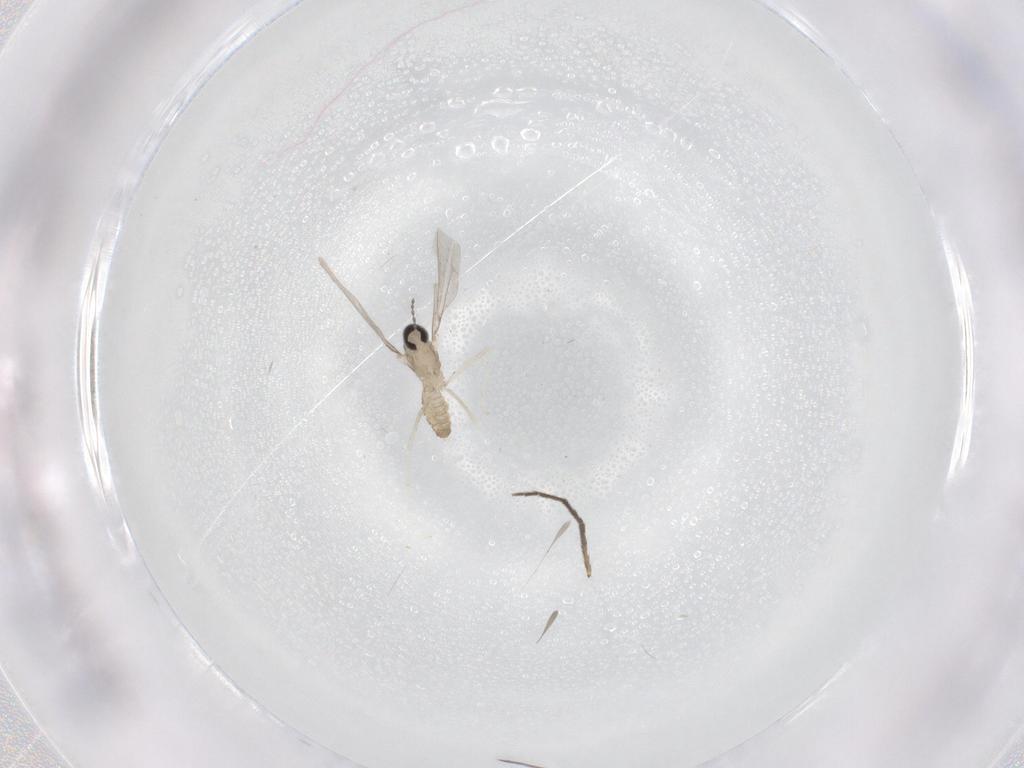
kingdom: Animalia
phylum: Arthropoda
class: Insecta
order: Diptera
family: Cecidomyiidae
